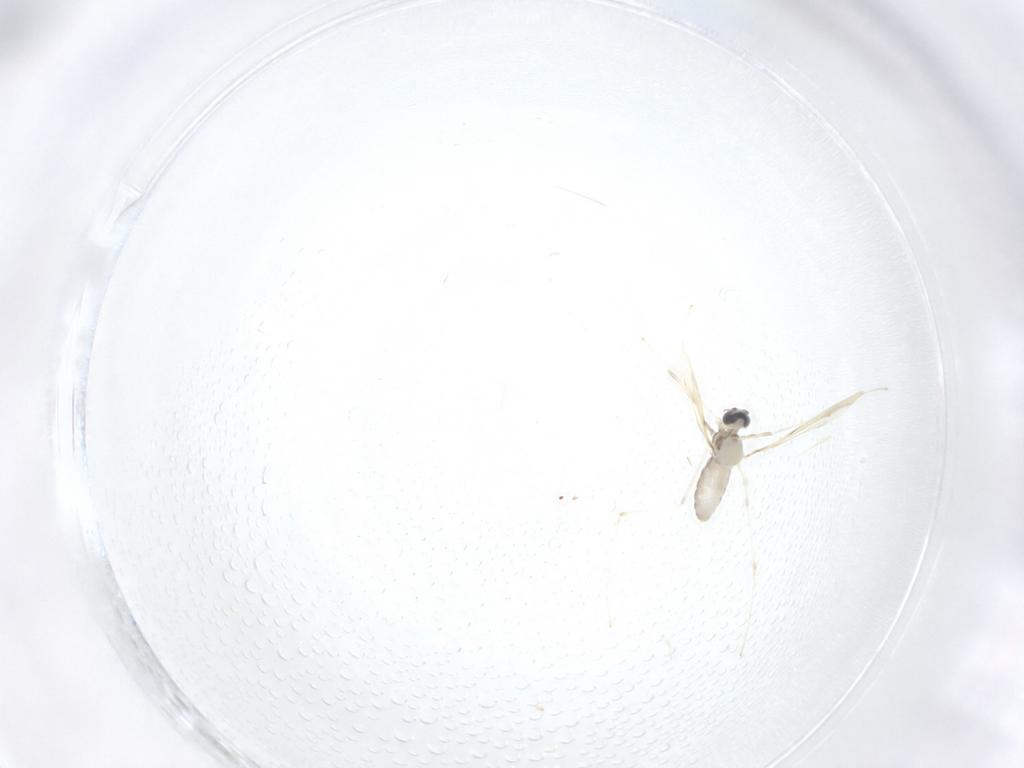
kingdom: Animalia
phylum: Arthropoda
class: Insecta
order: Diptera
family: Cecidomyiidae
